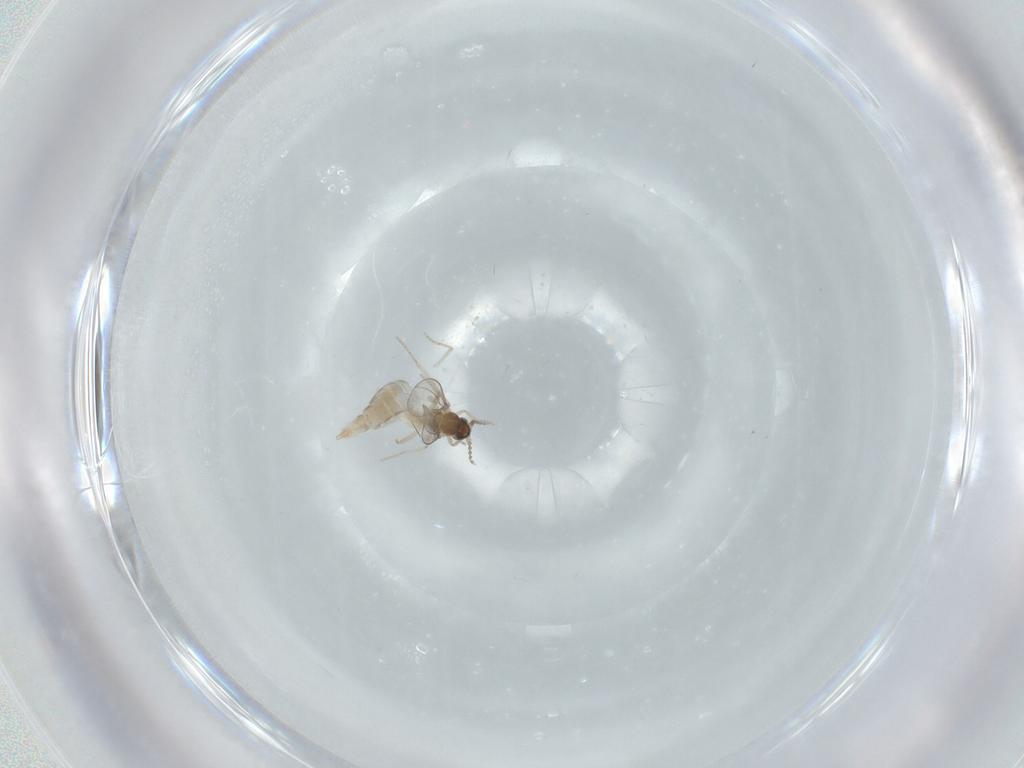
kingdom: Animalia
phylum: Arthropoda
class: Insecta
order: Diptera
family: Cecidomyiidae
